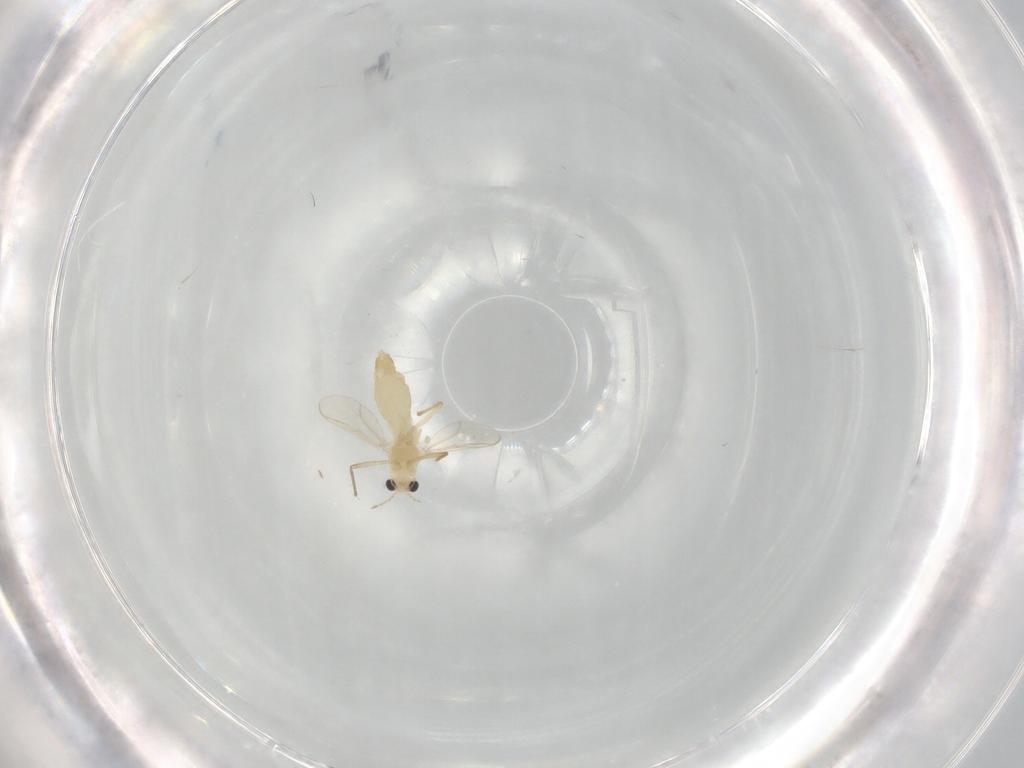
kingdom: Animalia
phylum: Arthropoda
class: Insecta
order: Diptera
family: Chironomidae
